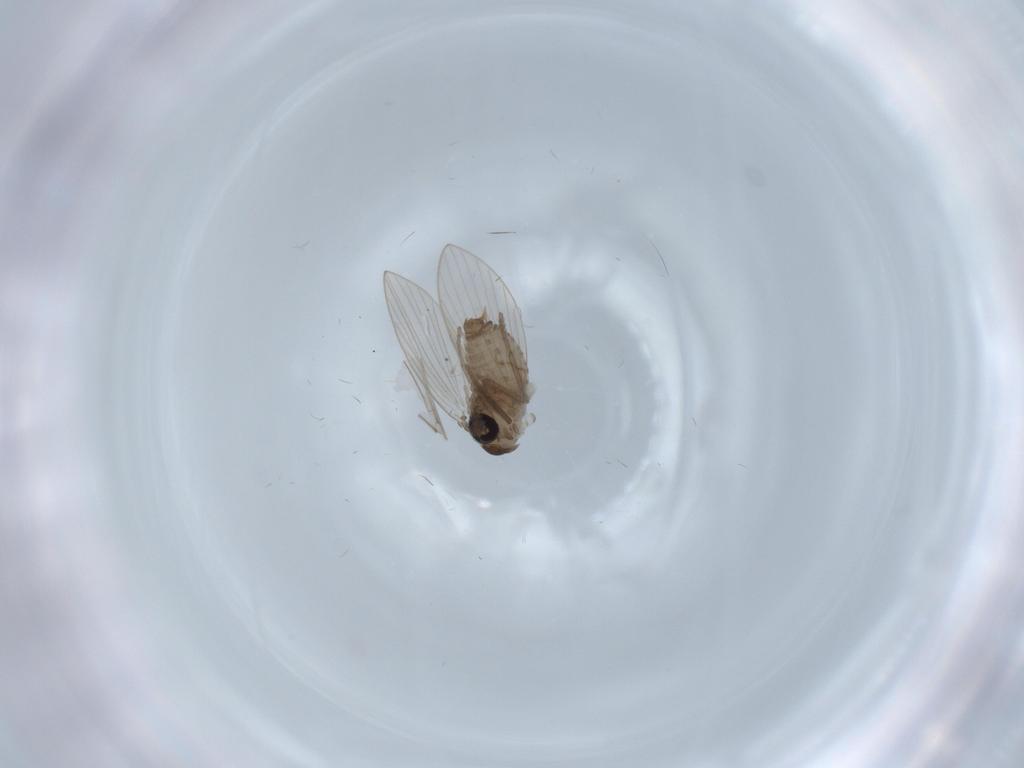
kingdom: Animalia
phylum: Arthropoda
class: Insecta
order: Diptera
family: Psychodidae
